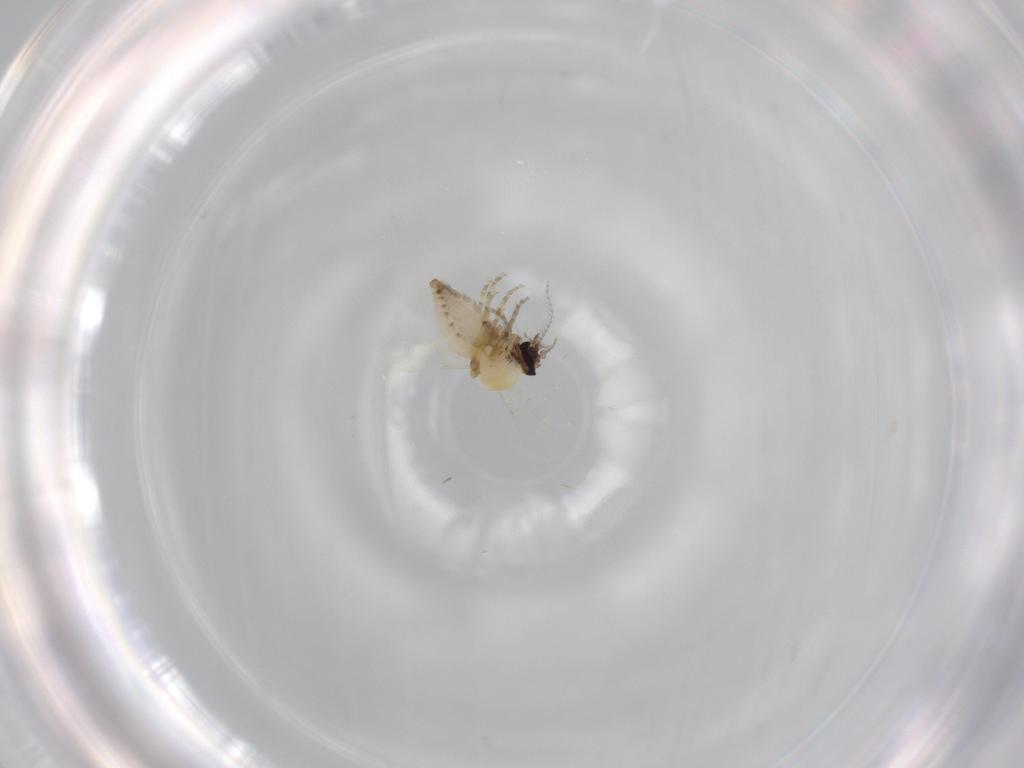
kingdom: Animalia
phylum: Arthropoda
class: Insecta
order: Diptera
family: Ceratopogonidae
